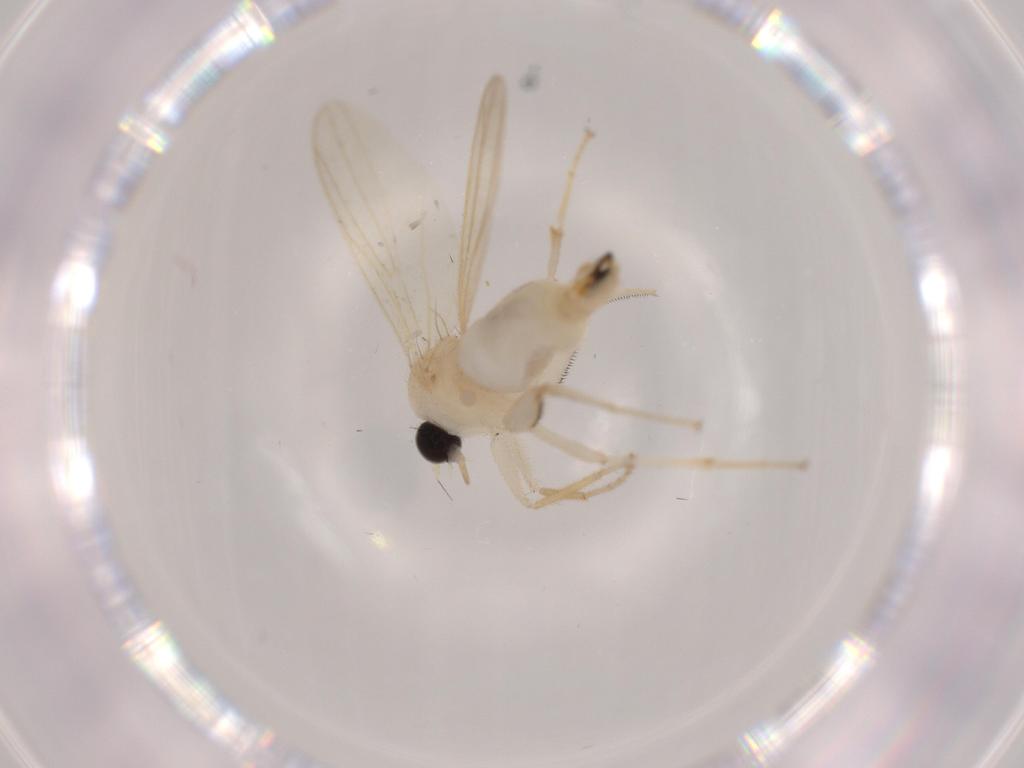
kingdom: Animalia
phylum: Arthropoda
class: Insecta
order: Diptera
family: Hybotidae
